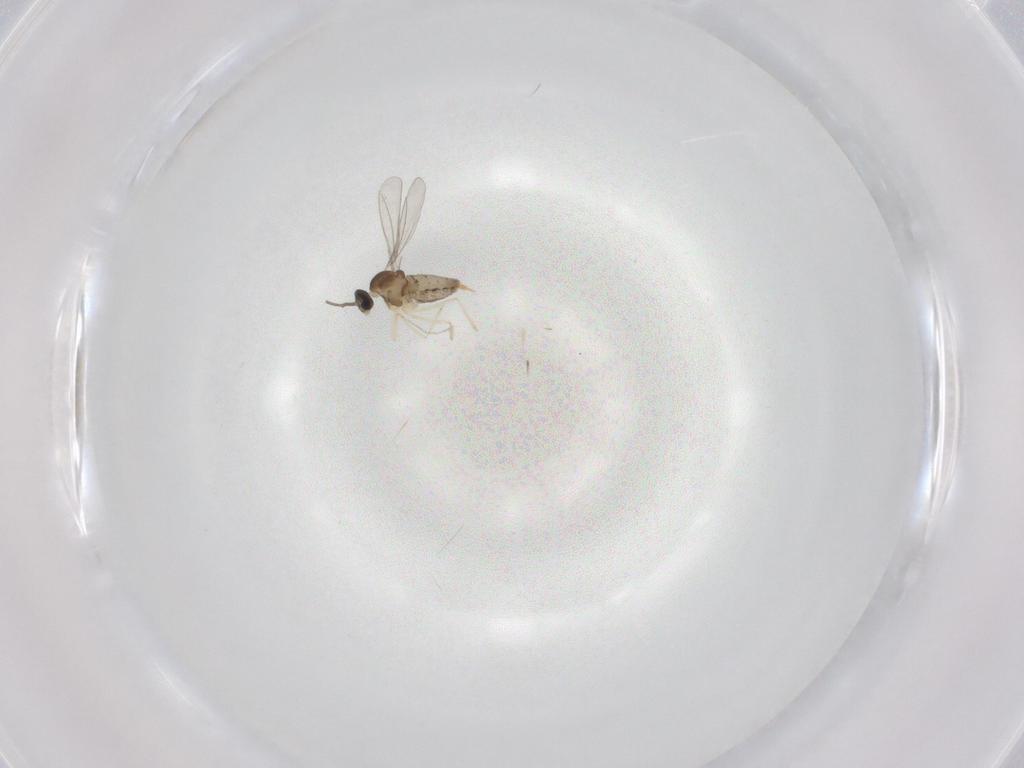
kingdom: Animalia
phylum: Arthropoda
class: Insecta
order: Diptera
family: Cecidomyiidae
